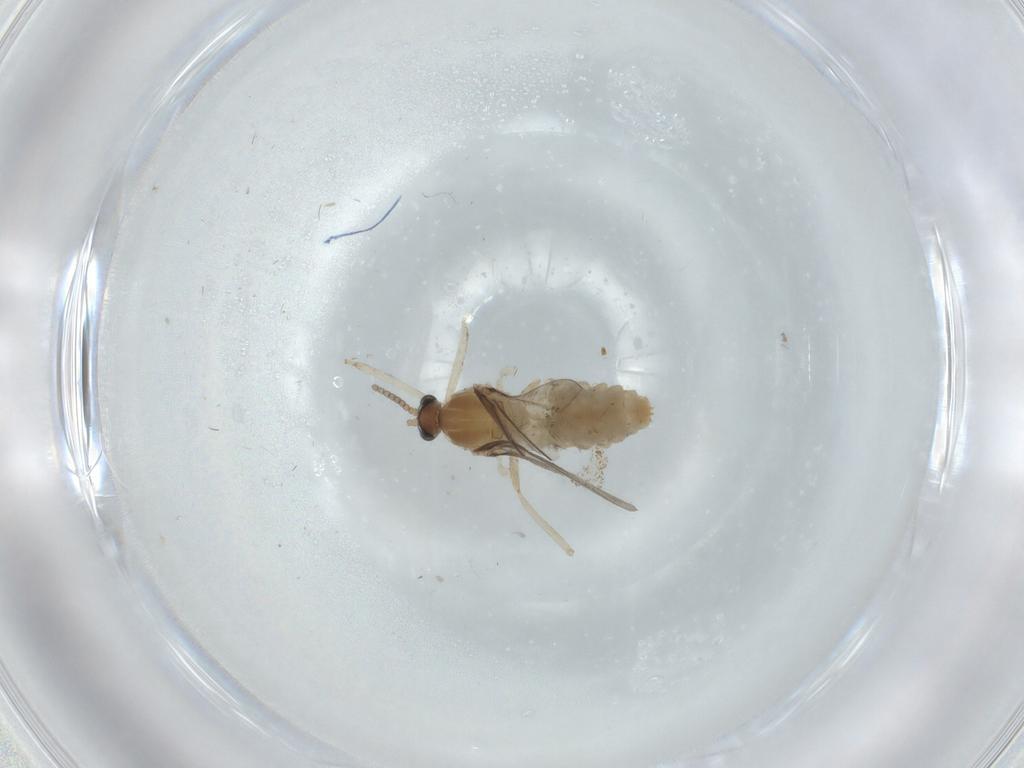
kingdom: Animalia
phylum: Arthropoda
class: Insecta
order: Diptera
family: Cecidomyiidae
